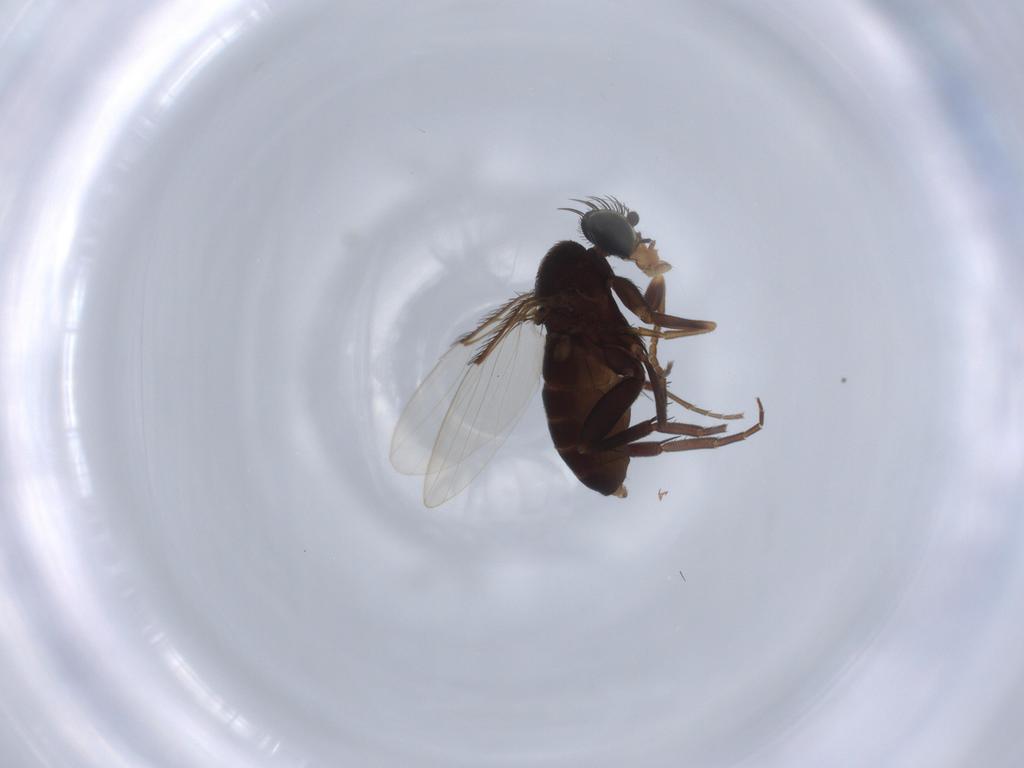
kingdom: Animalia
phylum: Arthropoda
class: Insecta
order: Diptera
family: Phoridae
